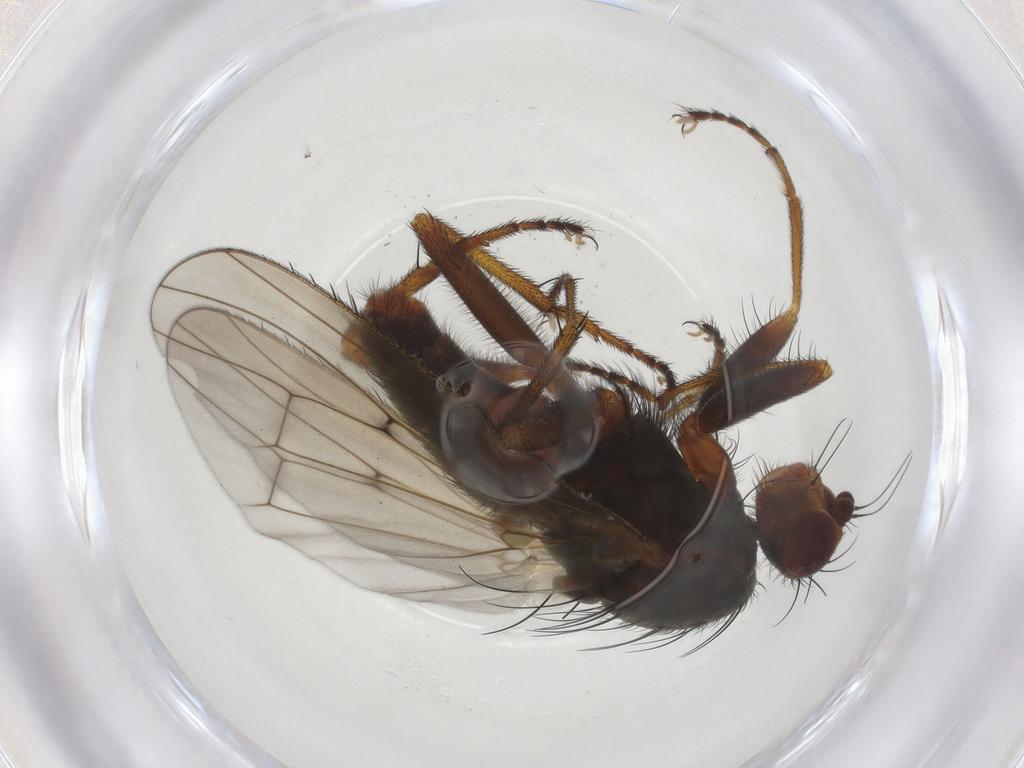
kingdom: Animalia
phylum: Arthropoda
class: Insecta
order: Diptera
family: Heleomyzidae
